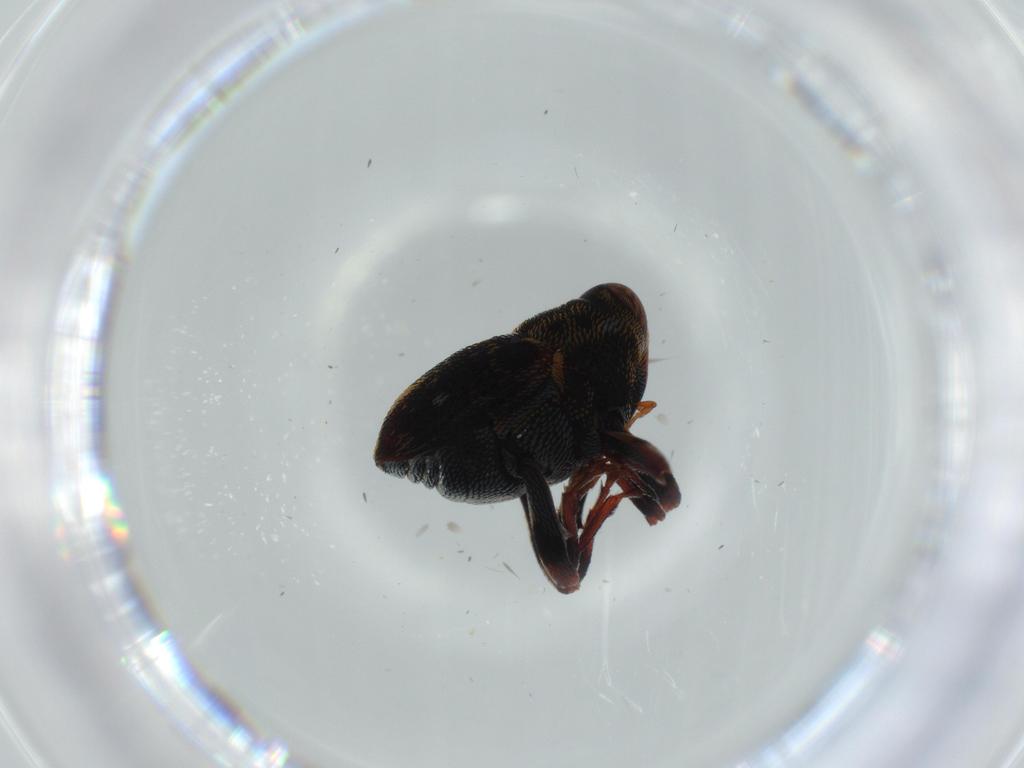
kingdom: Animalia
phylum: Arthropoda
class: Insecta
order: Coleoptera
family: Curculionidae
